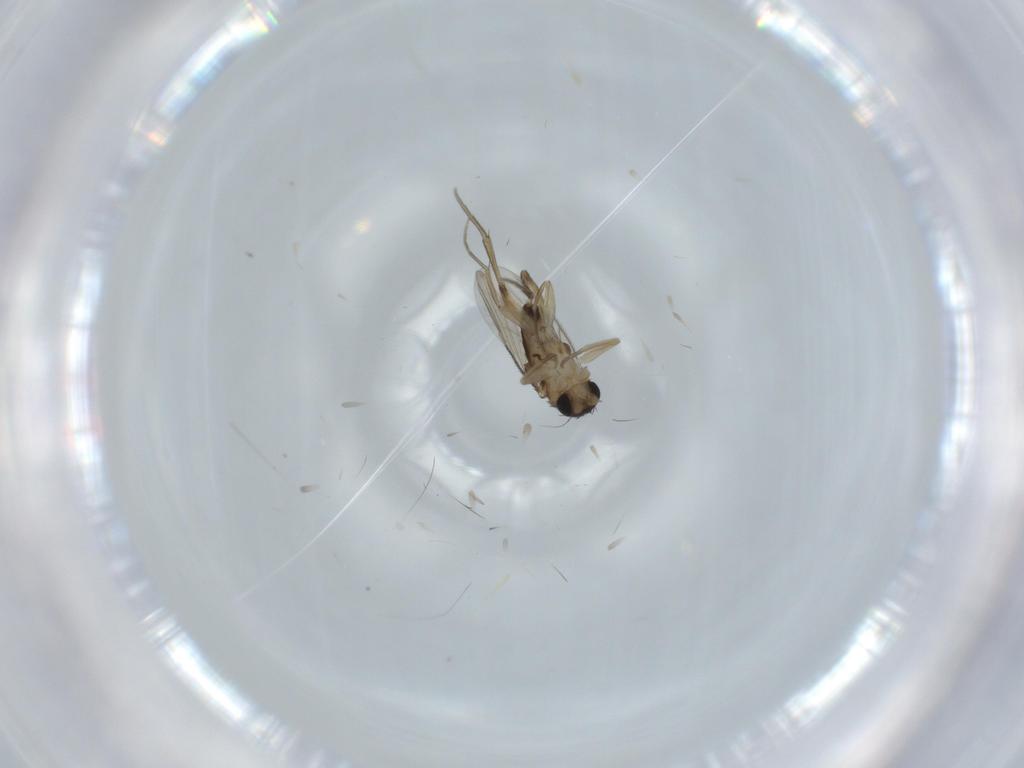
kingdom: Animalia
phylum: Arthropoda
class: Insecta
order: Diptera
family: Phoridae
